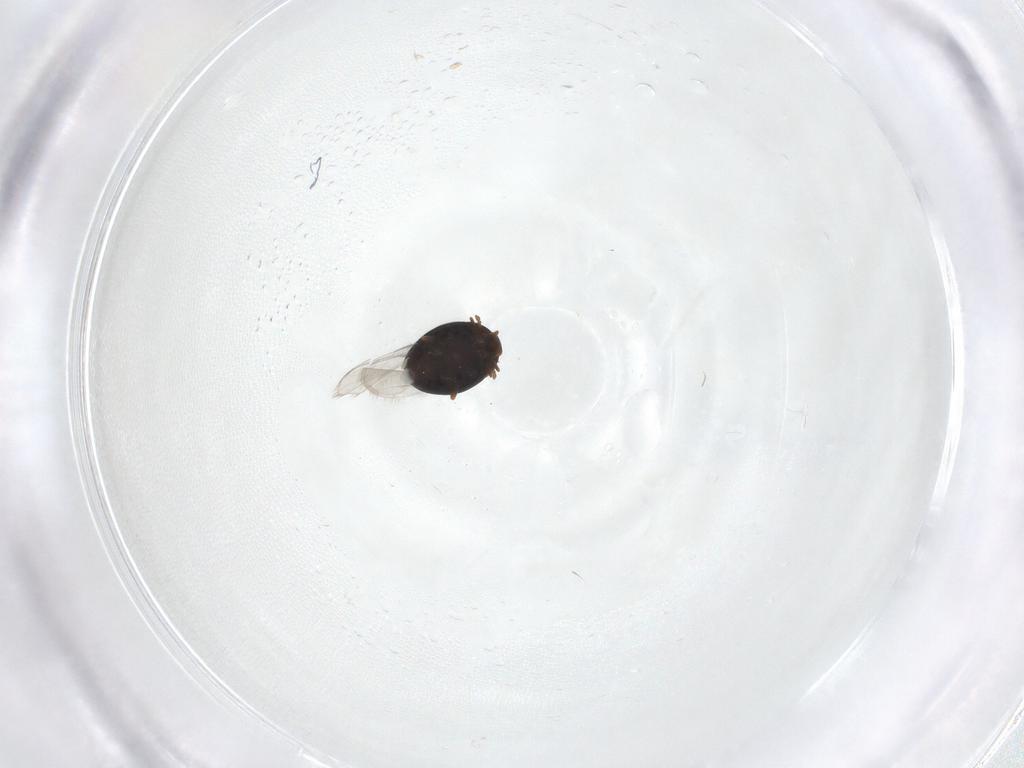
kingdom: Animalia
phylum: Arthropoda
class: Insecta
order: Coleoptera
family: Corylophidae
